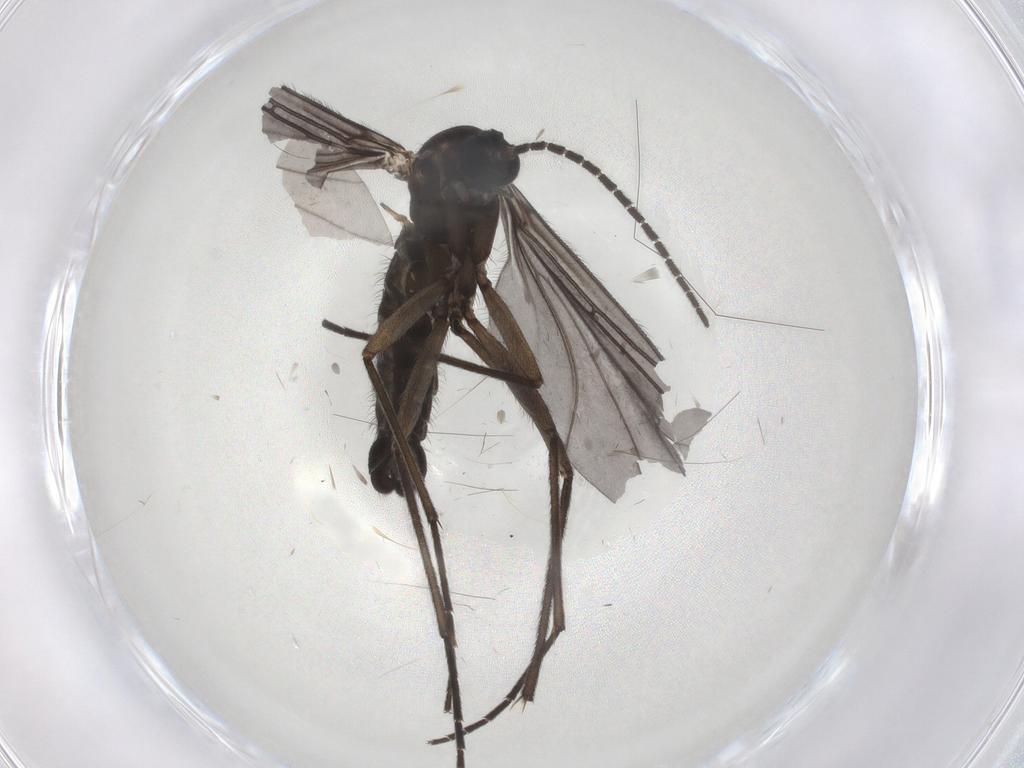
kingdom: Animalia
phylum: Arthropoda
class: Insecta
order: Diptera
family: Sciaridae
